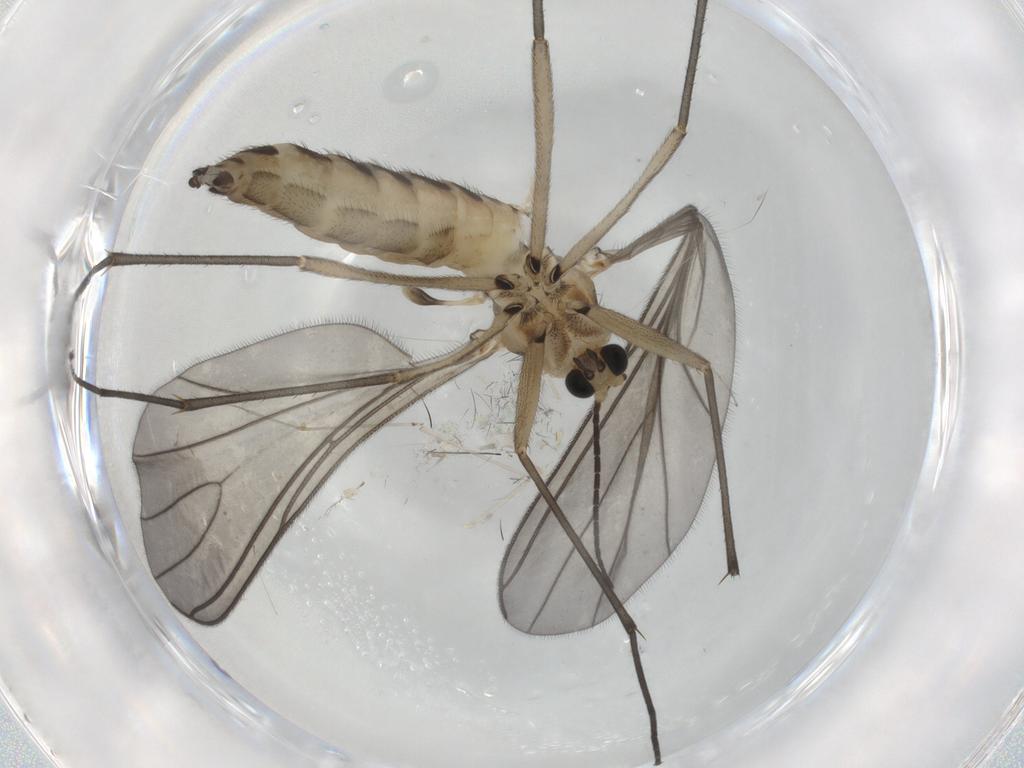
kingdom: Animalia
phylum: Arthropoda
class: Insecta
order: Diptera
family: Sciaridae
